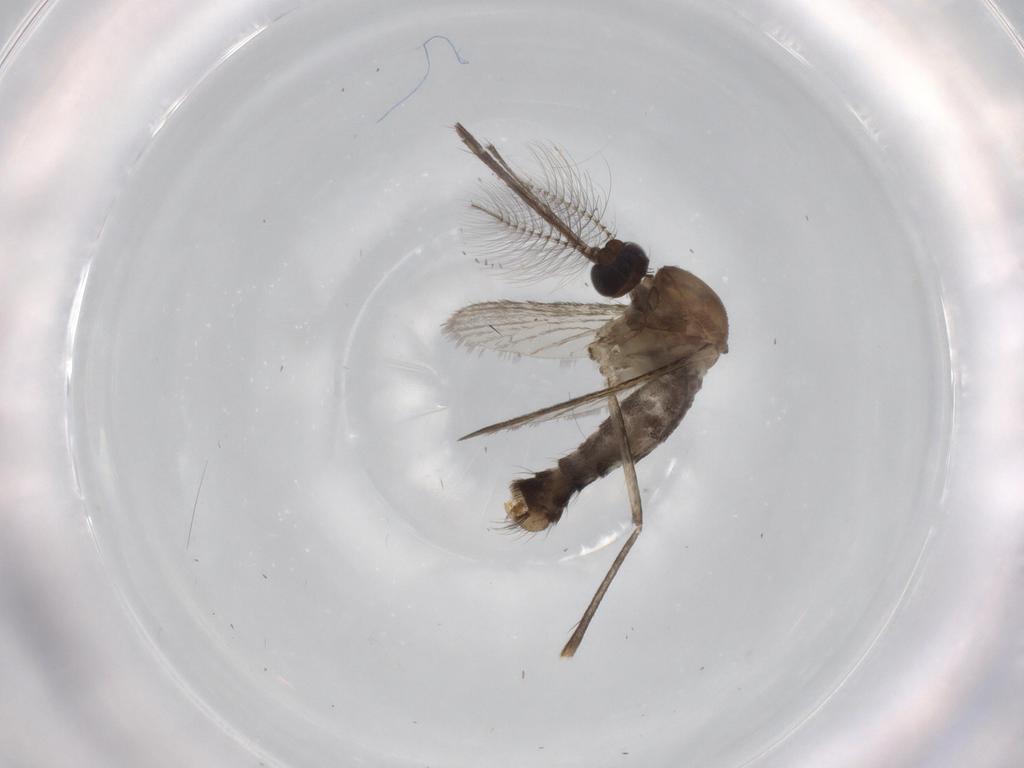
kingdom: Animalia
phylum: Arthropoda
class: Insecta
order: Diptera
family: Cecidomyiidae
